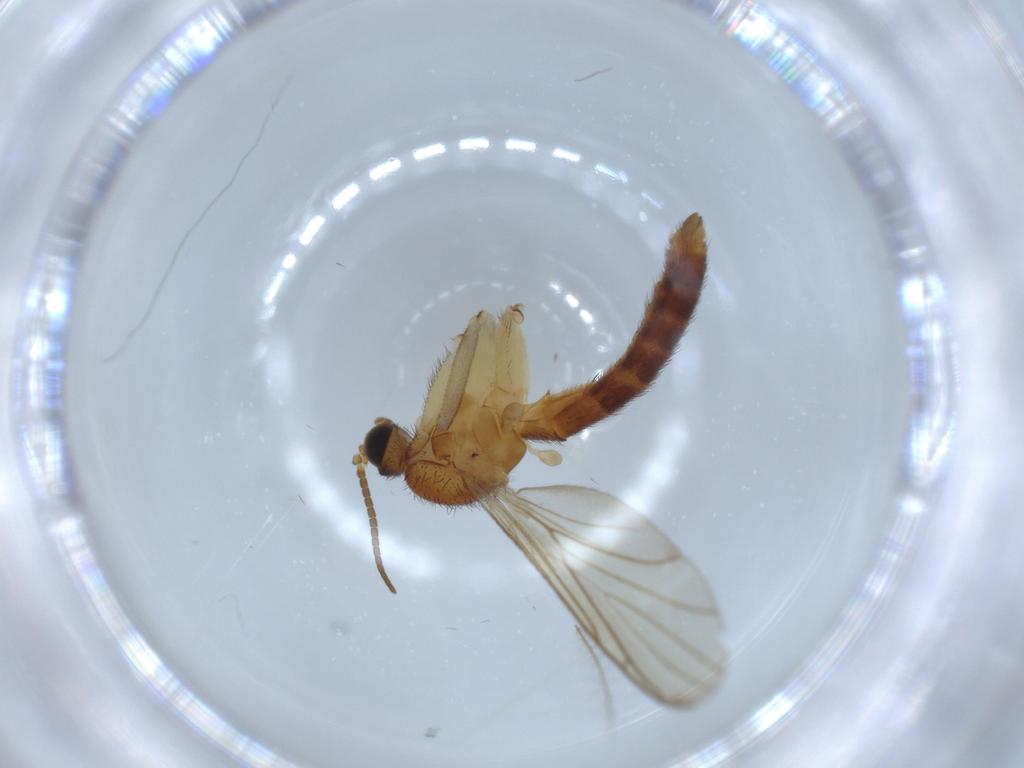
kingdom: Animalia
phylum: Arthropoda
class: Insecta
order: Diptera
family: Keroplatidae
